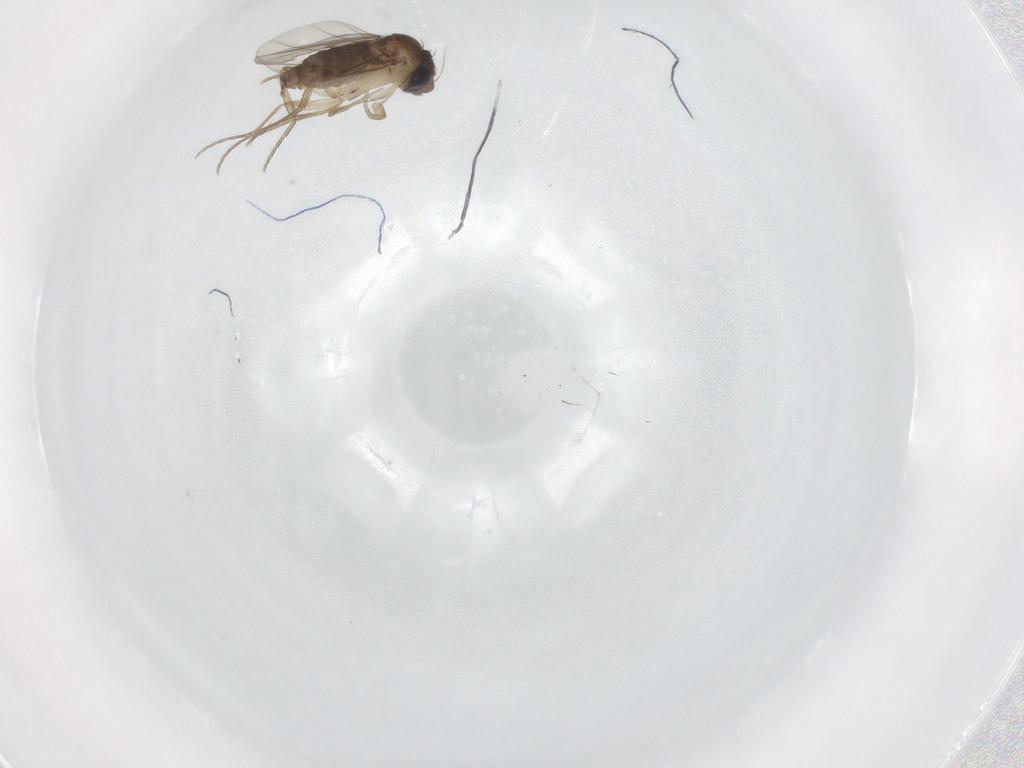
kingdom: Animalia
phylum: Arthropoda
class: Insecta
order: Diptera
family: Phoridae
